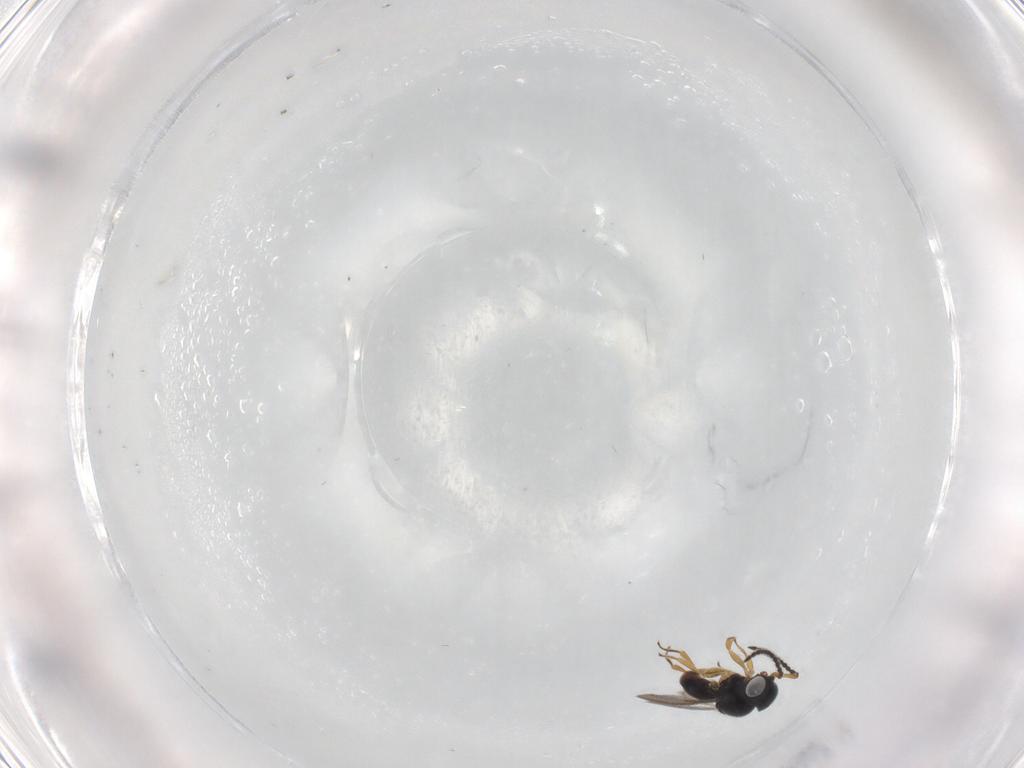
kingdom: Animalia
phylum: Arthropoda
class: Insecta
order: Hymenoptera
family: Scelionidae
